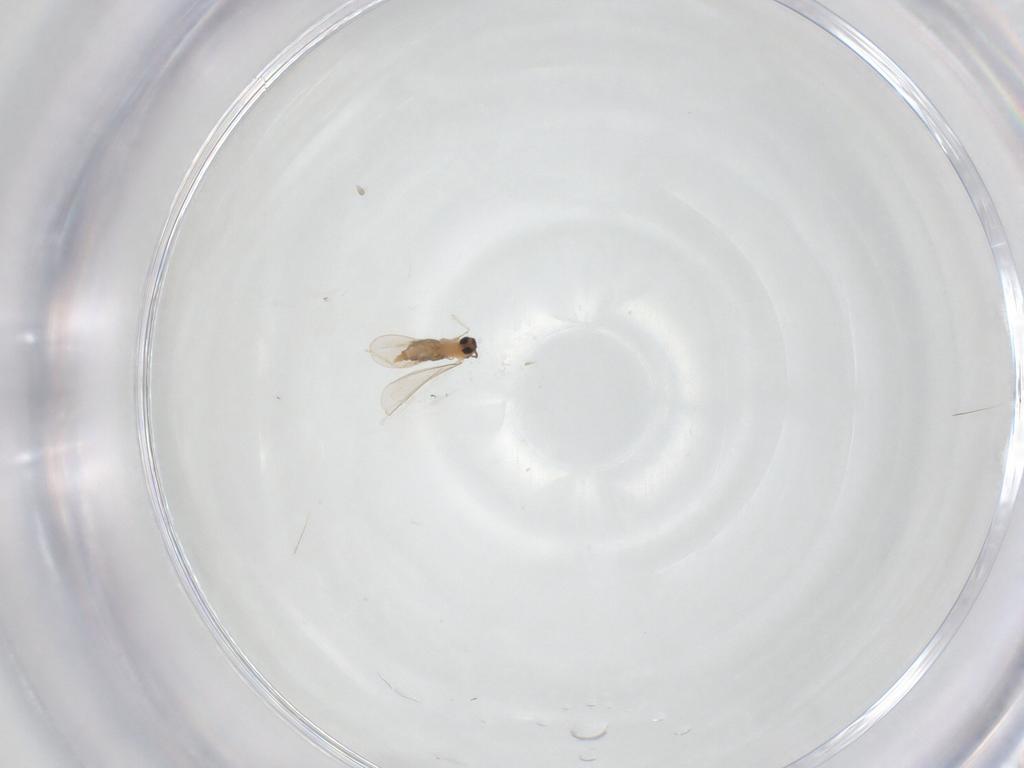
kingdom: Animalia
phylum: Arthropoda
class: Insecta
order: Diptera
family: Cecidomyiidae
